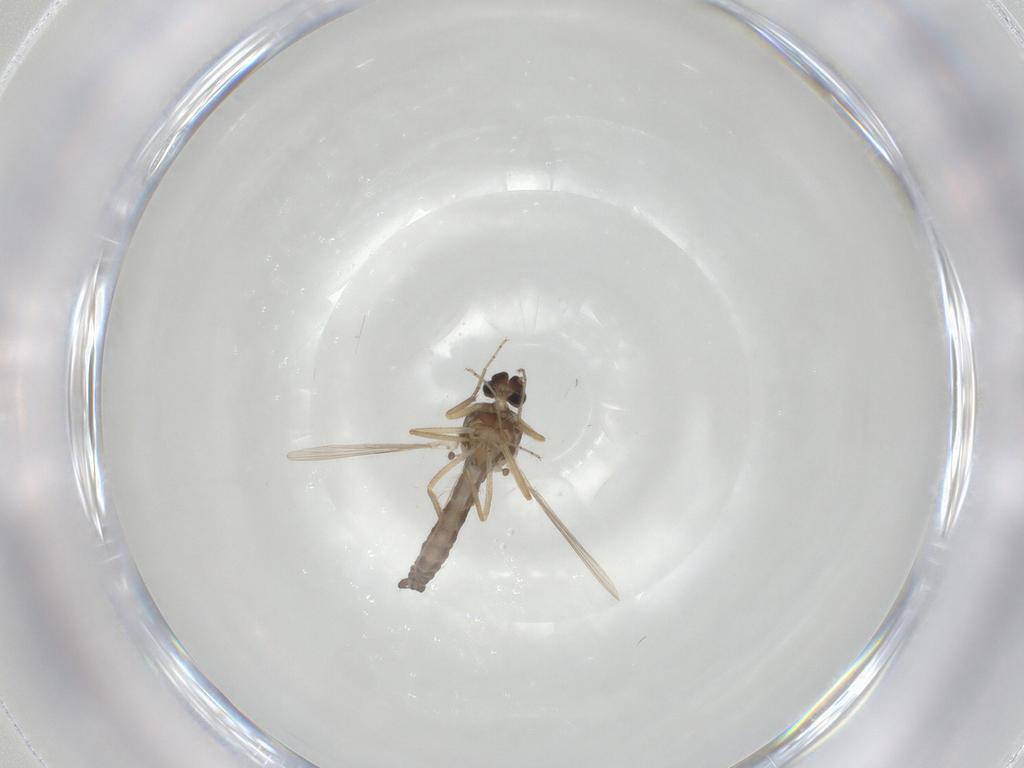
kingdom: Animalia
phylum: Arthropoda
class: Insecta
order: Diptera
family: Ceratopogonidae
